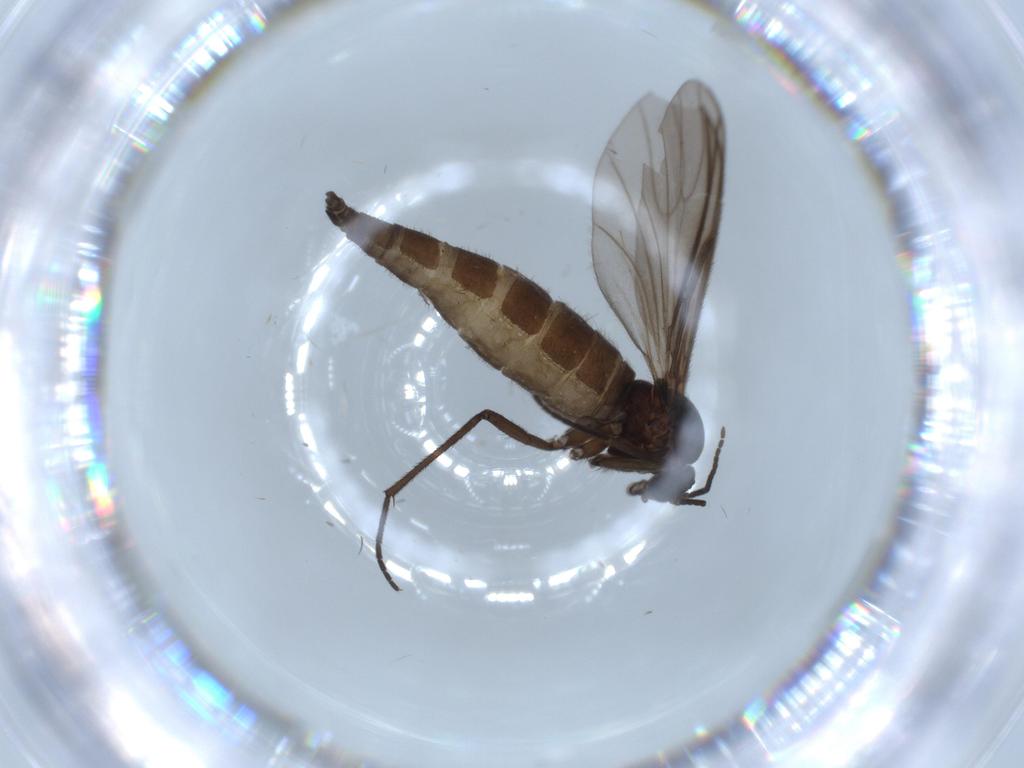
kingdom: Animalia
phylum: Arthropoda
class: Insecta
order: Diptera
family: Sciaridae
